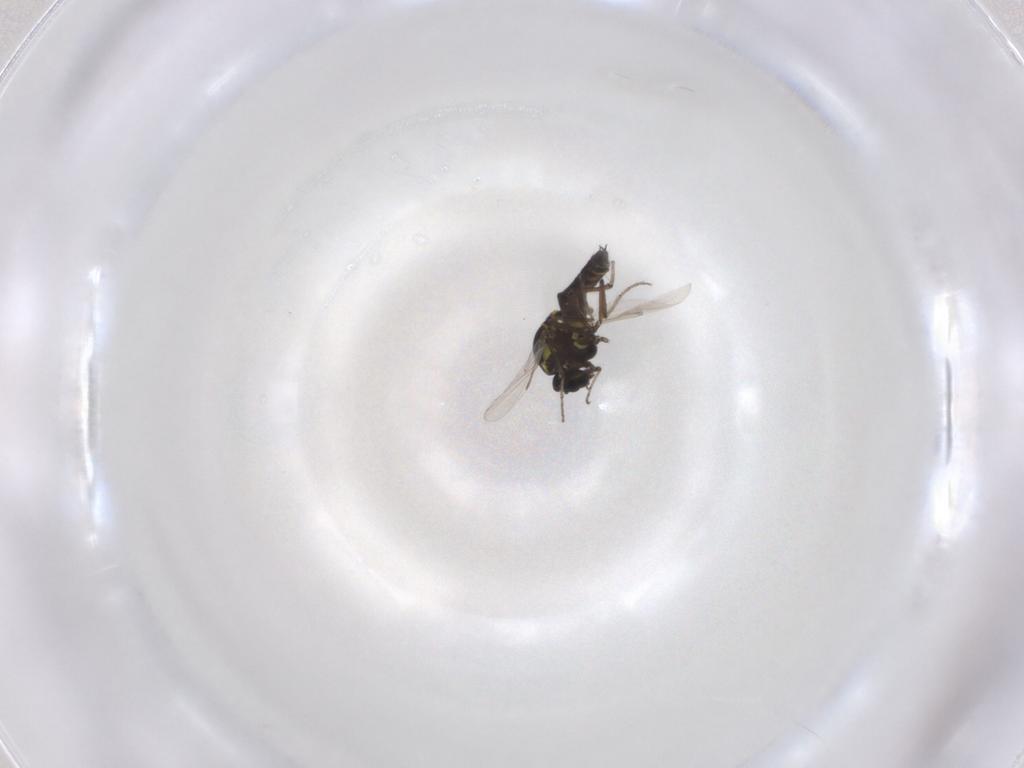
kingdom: Animalia
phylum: Arthropoda
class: Insecta
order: Diptera
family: Ceratopogonidae
